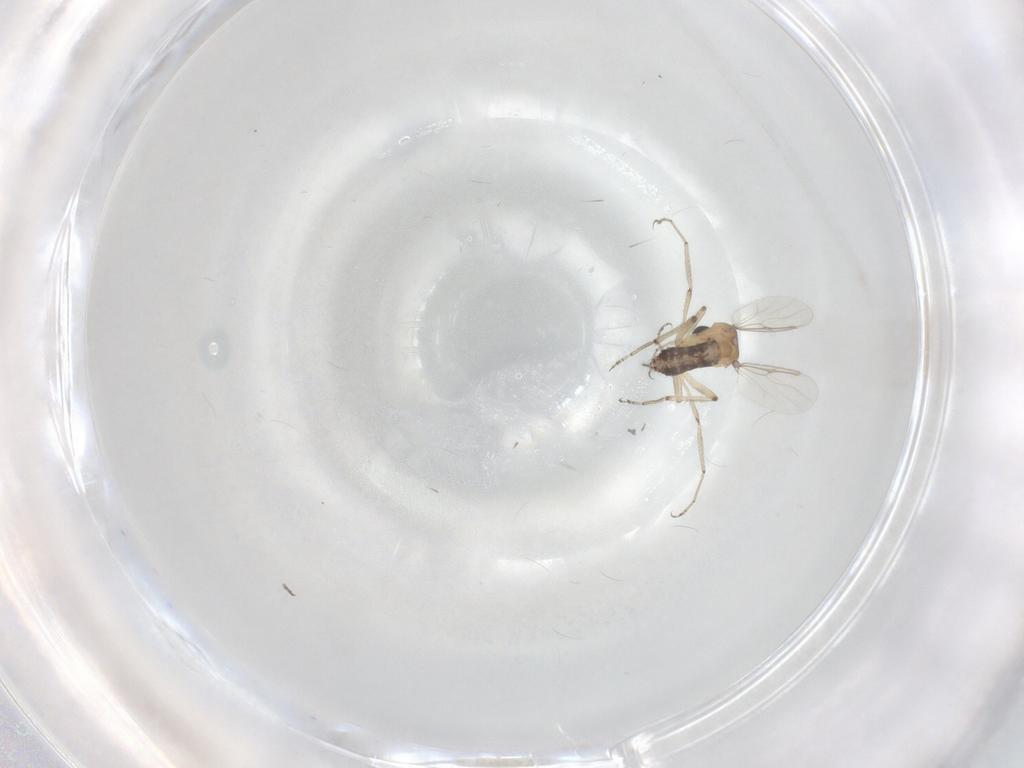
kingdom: Animalia
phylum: Arthropoda
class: Insecta
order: Diptera
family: Ceratopogonidae
